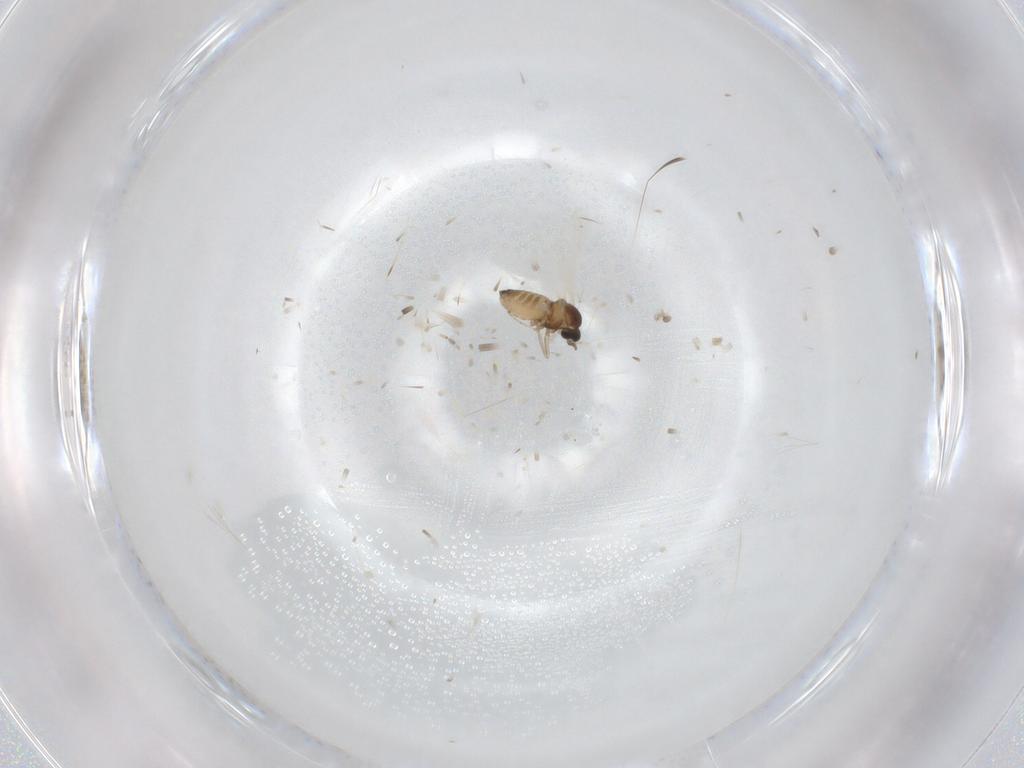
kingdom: Animalia
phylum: Arthropoda
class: Insecta
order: Diptera
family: Cecidomyiidae
